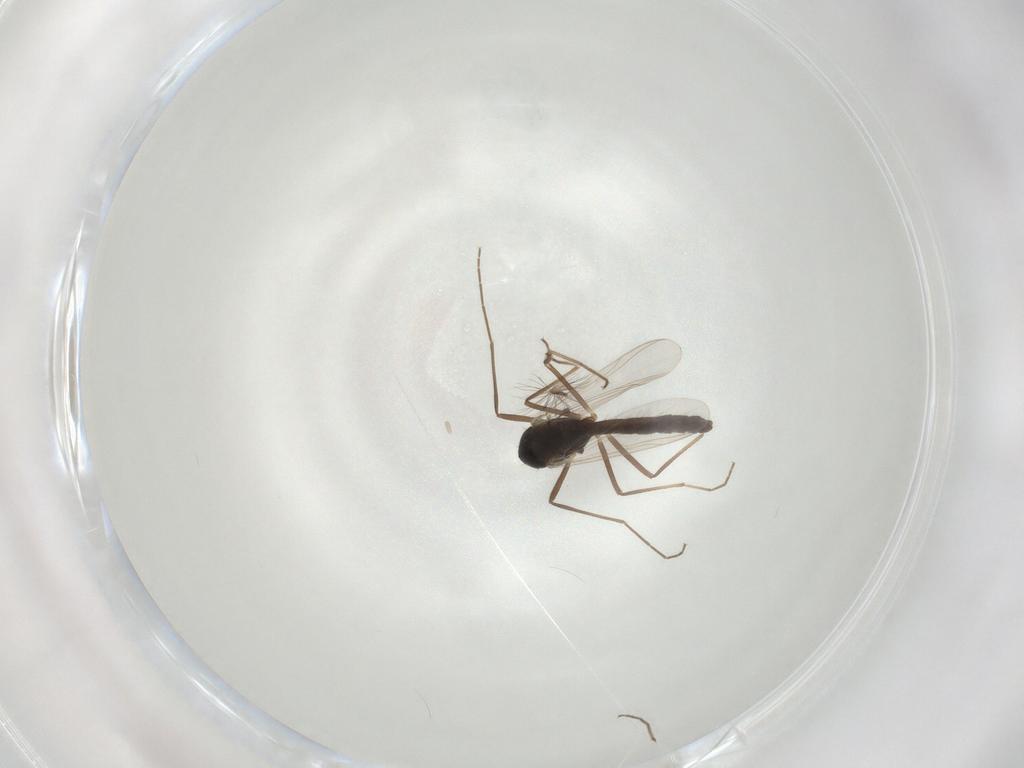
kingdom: Animalia
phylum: Arthropoda
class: Insecta
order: Diptera
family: Chironomidae
